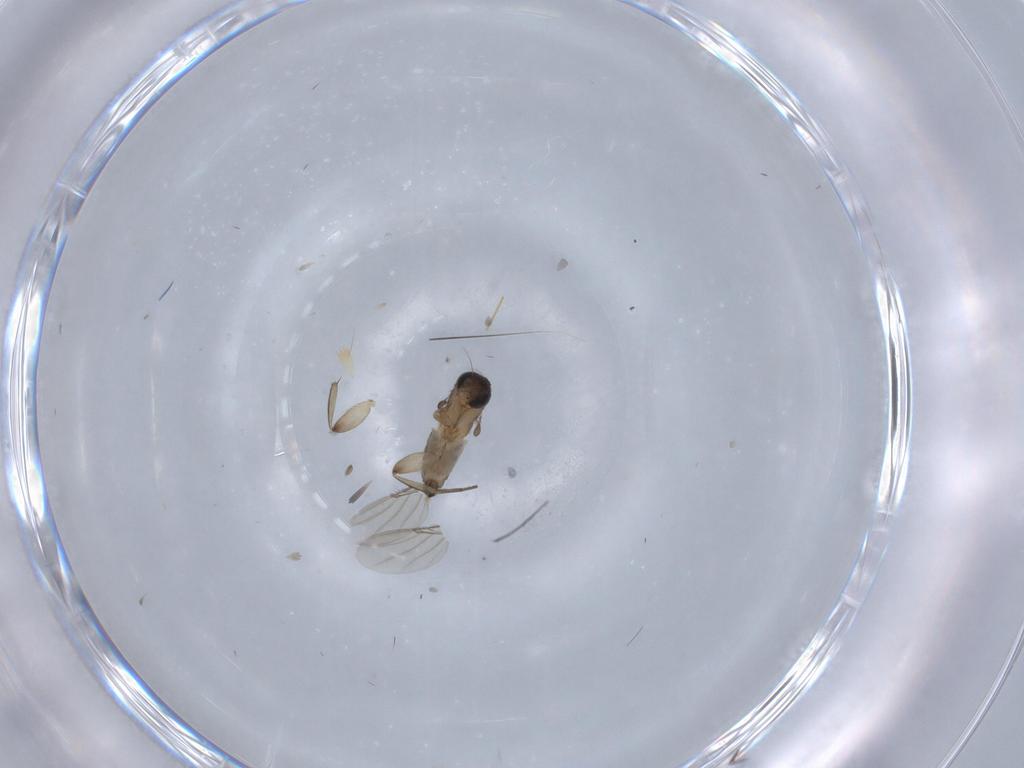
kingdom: Animalia
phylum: Arthropoda
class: Insecta
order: Diptera
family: Phoridae
